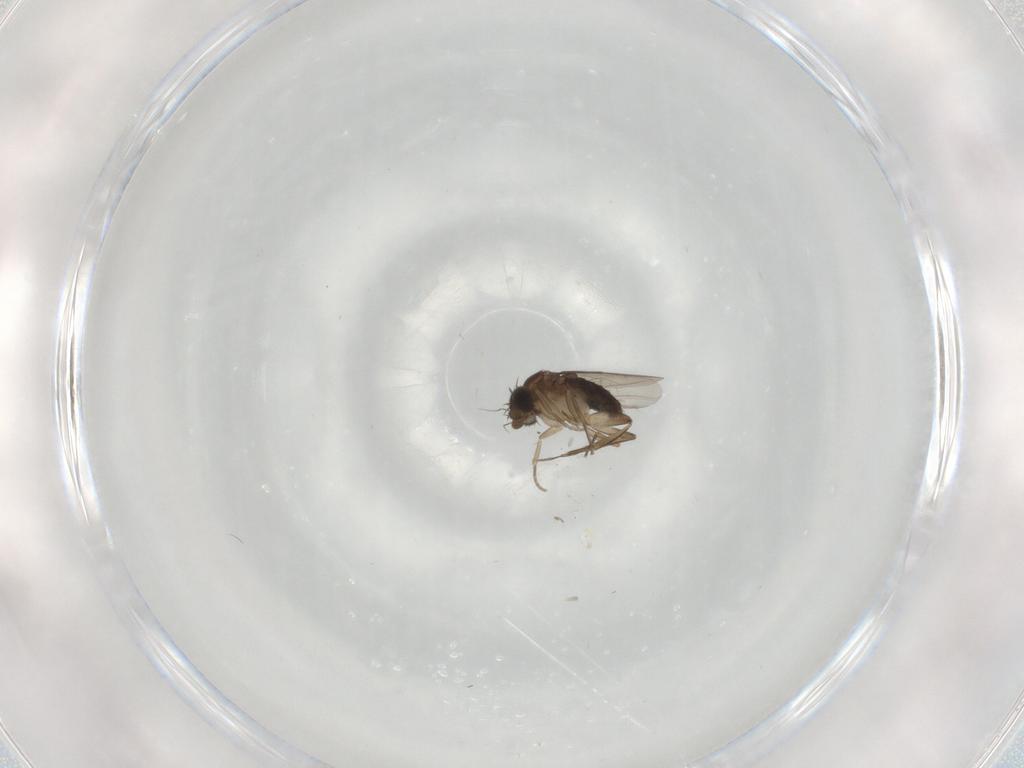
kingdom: Animalia
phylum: Arthropoda
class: Insecta
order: Diptera
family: Phoridae
